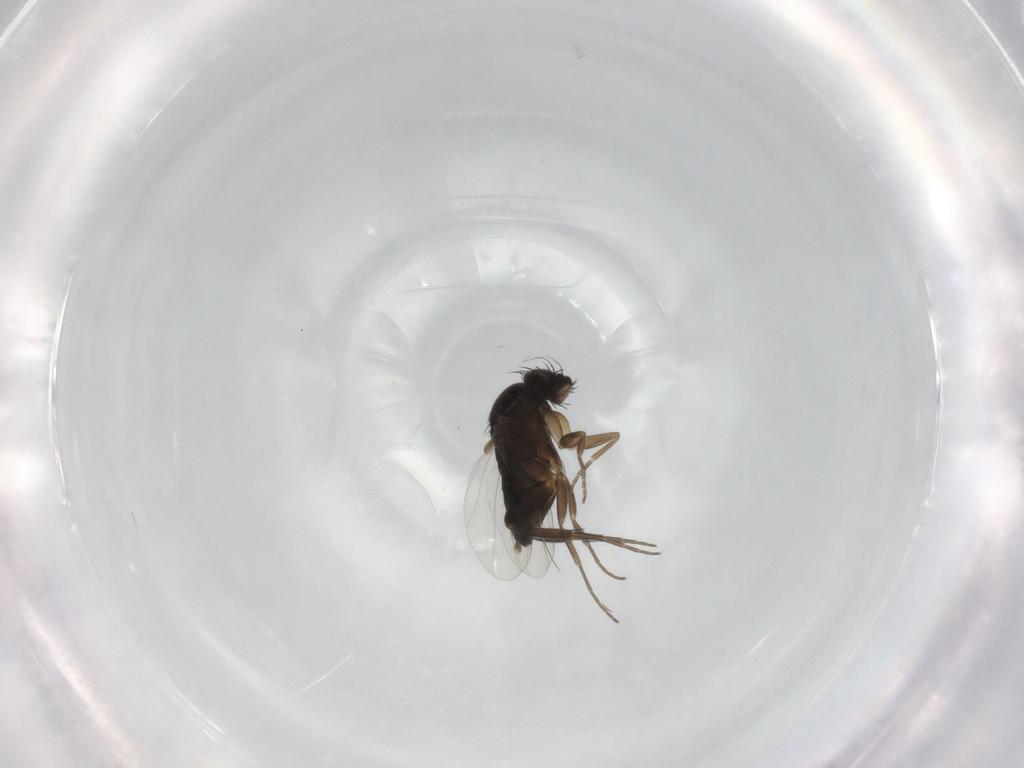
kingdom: Animalia
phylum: Arthropoda
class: Insecta
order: Diptera
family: Phoridae
